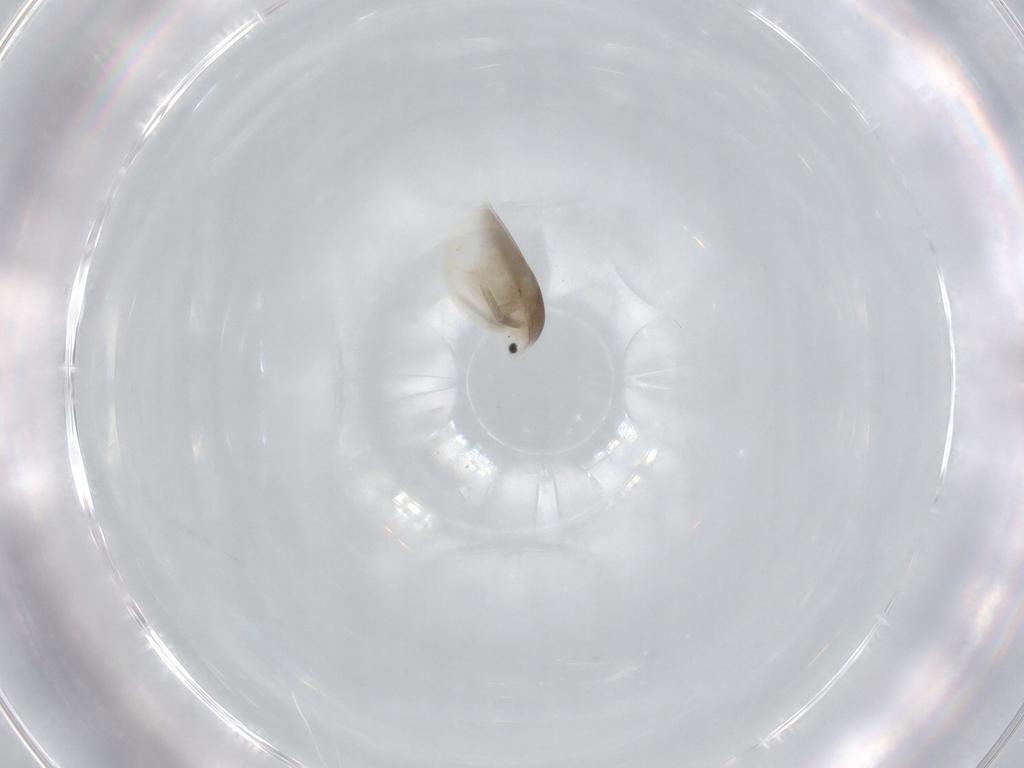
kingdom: Animalia
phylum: Arthropoda
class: Branchiopoda
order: Diplostraca
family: Daphniidae
